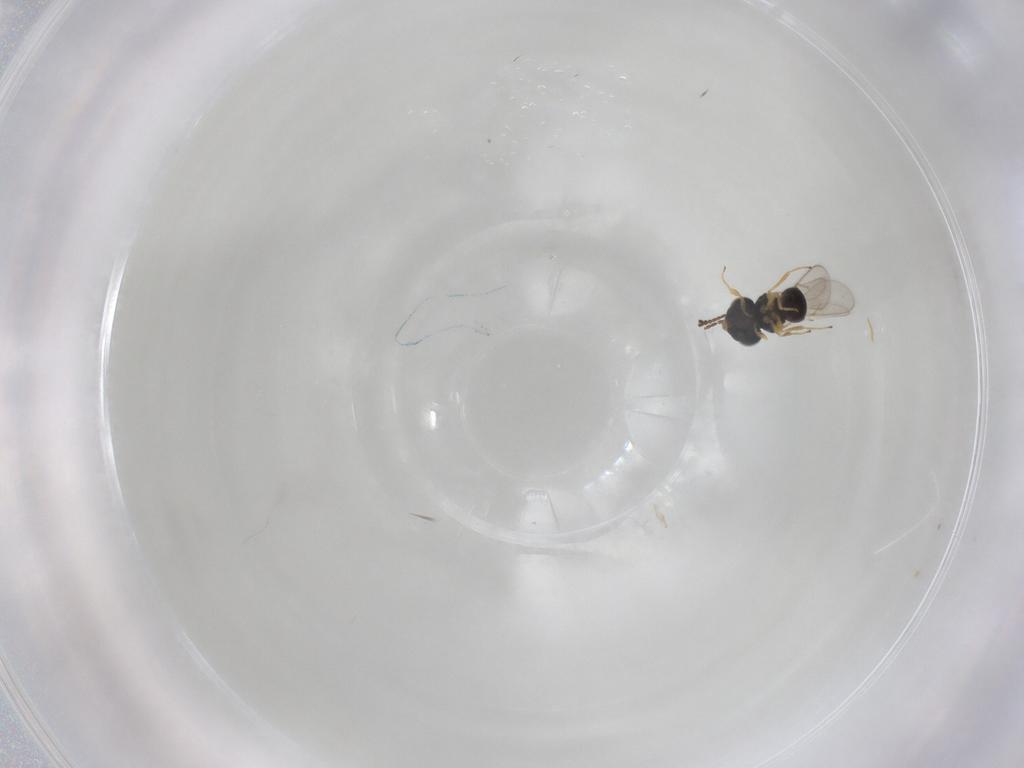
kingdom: Animalia
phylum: Arthropoda
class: Insecta
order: Hymenoptera
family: Scelionidae
